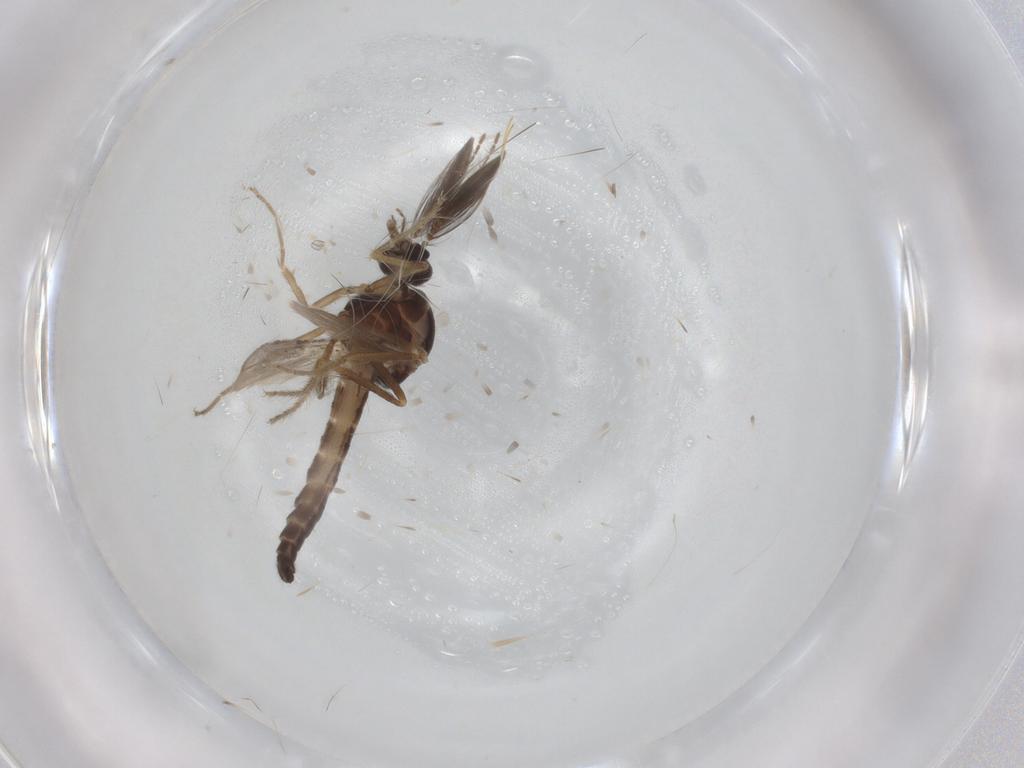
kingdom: Animalia
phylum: Arthropoda
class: Insecta
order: Diptera
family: Ceratopogonidae
